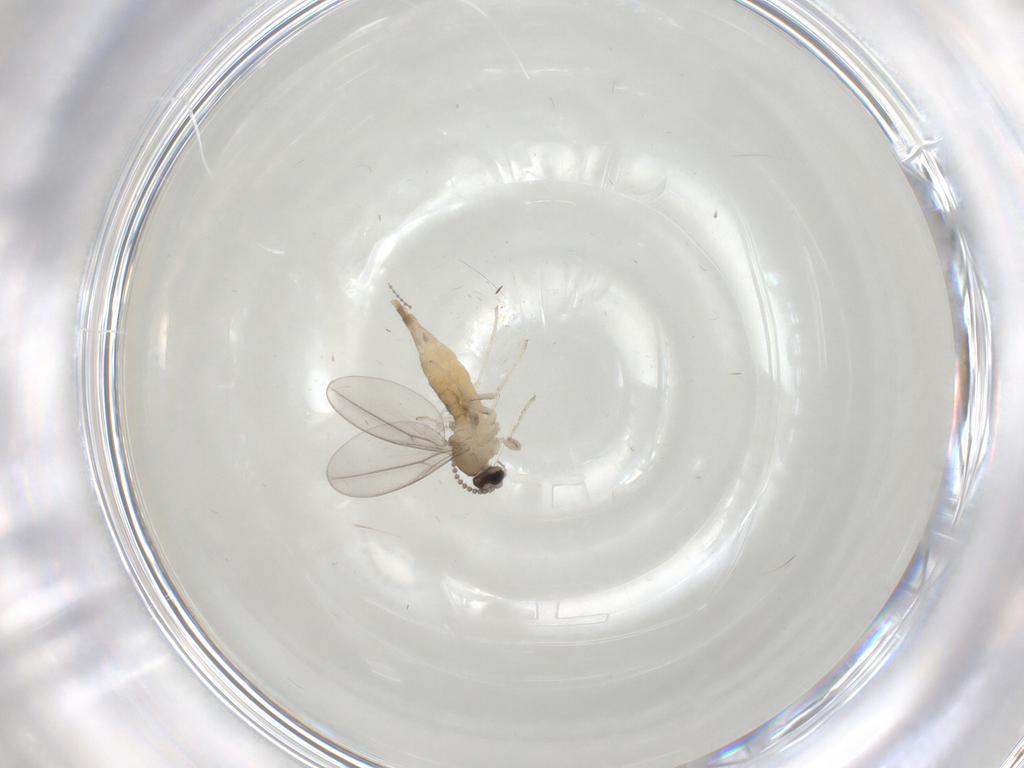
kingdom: Animalia
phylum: Arthropoda
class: Insecta
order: Diptera
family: Cecidomyiidae
